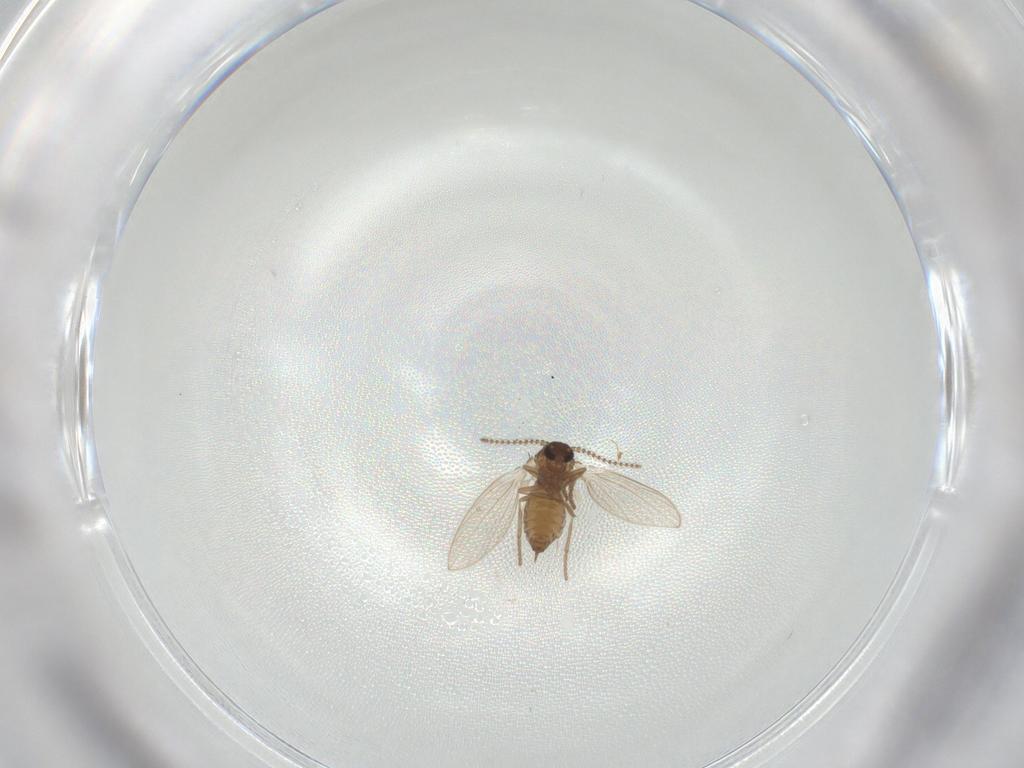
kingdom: Animalia
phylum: Arthropoda
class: Insecta
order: Diptera
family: Psychodidae
